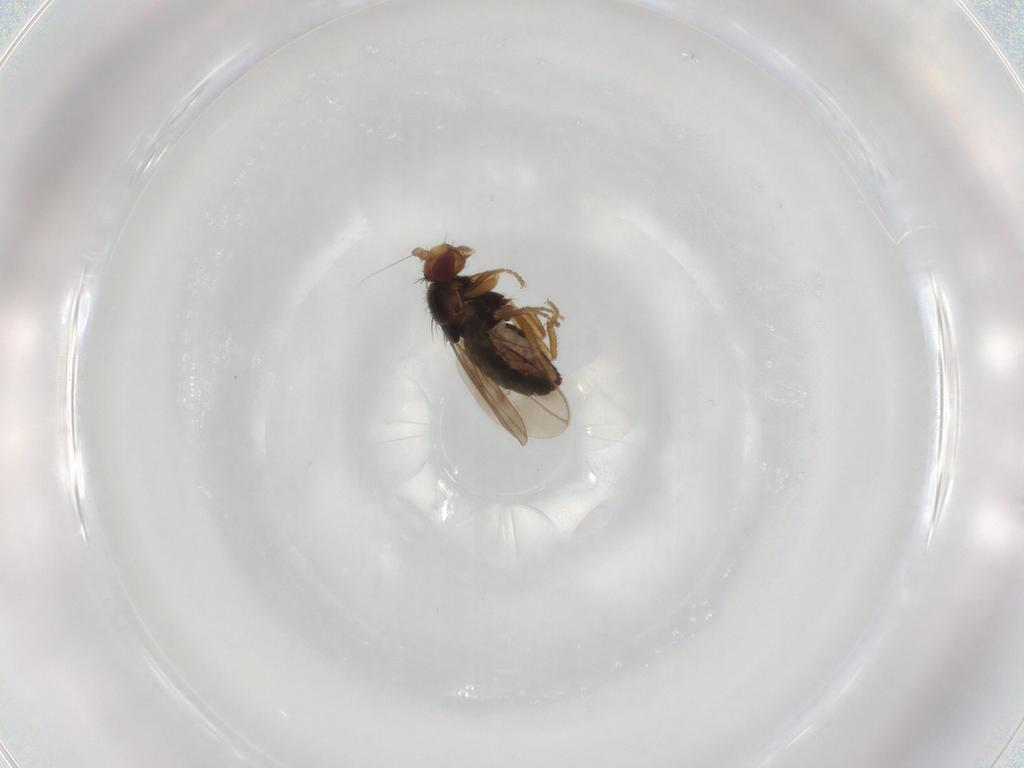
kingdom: Animalia
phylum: Arthropoda
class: Insecta
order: Diptera
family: Sphaeroceridae
